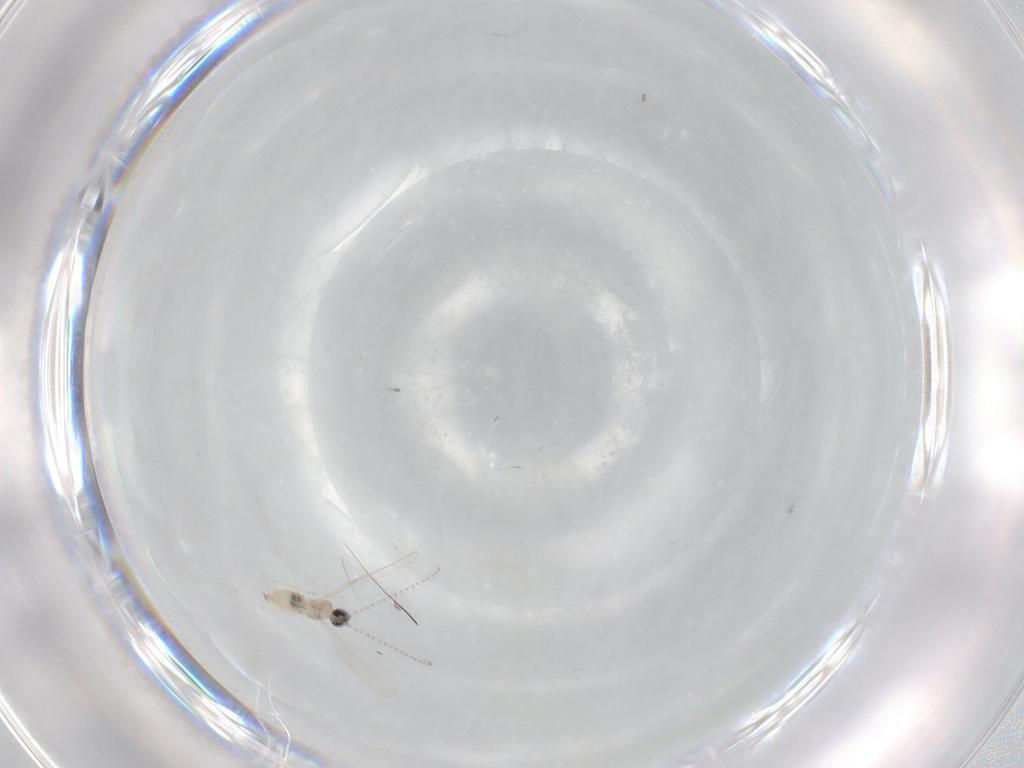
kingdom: Animalia
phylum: Arthropoda
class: Insecta
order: Diptera
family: Cecidomyiidae
